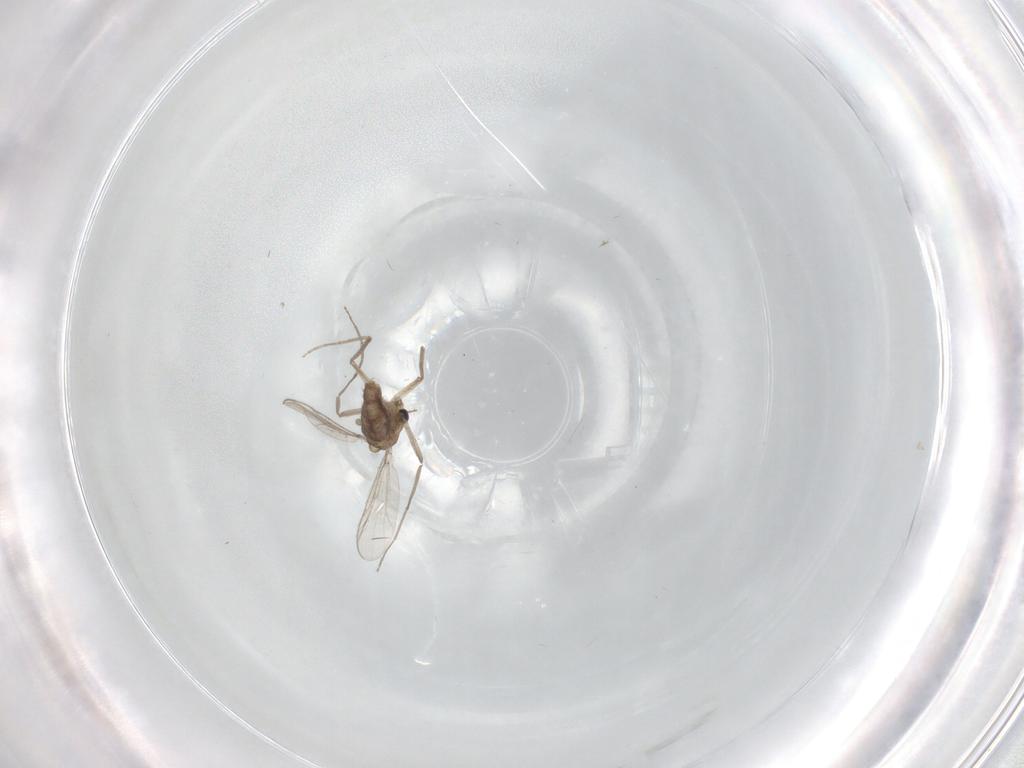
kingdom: Animalia
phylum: Arthropoda
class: Insecta
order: Diptera
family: Chironomidae
